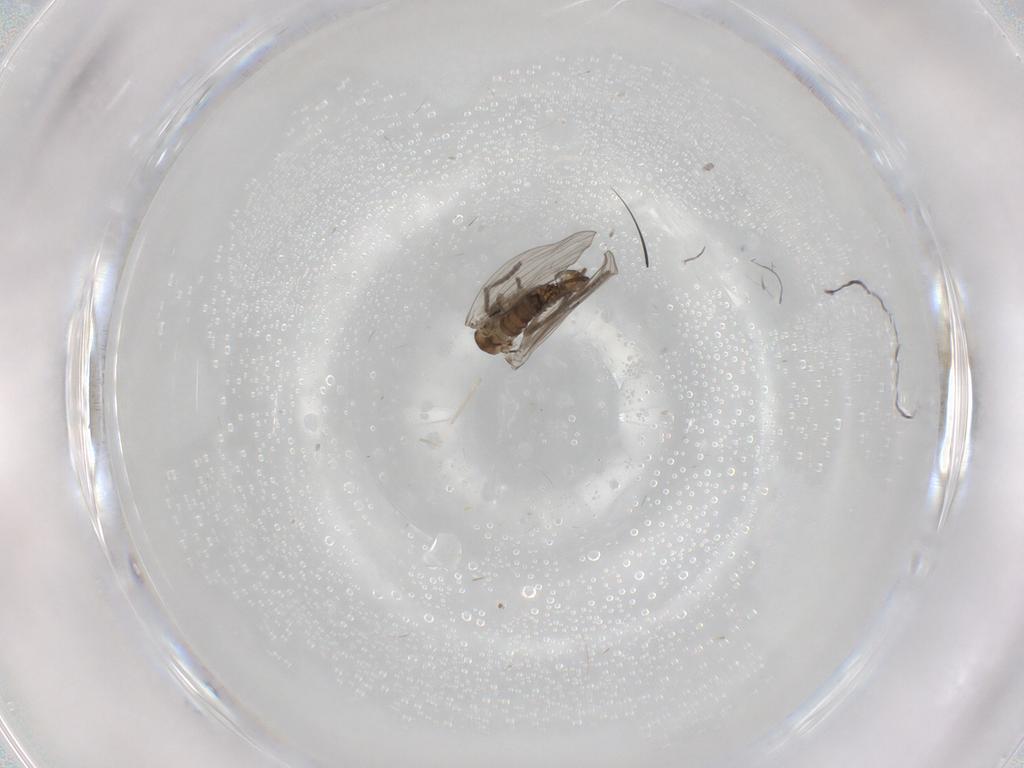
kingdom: Animalia
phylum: Arthropoda
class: Insecta
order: Diptera
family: Drosophilidae
